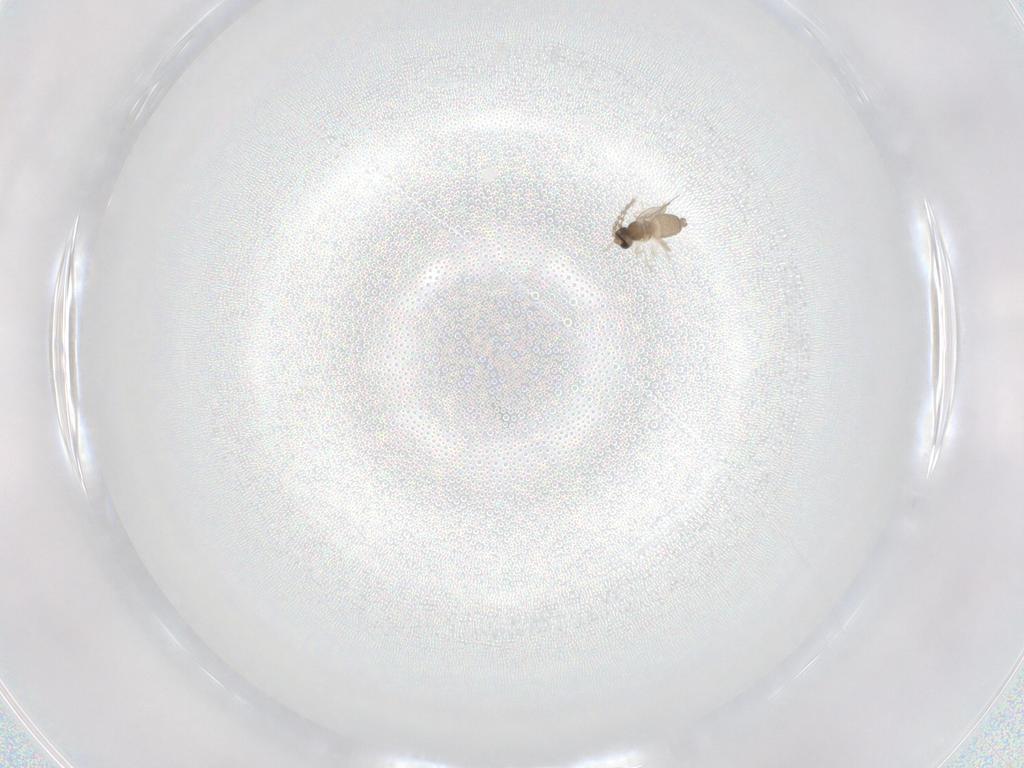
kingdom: Animalia
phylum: Arthropoda
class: Insecta
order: Diptera
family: Cecidomyiidae
